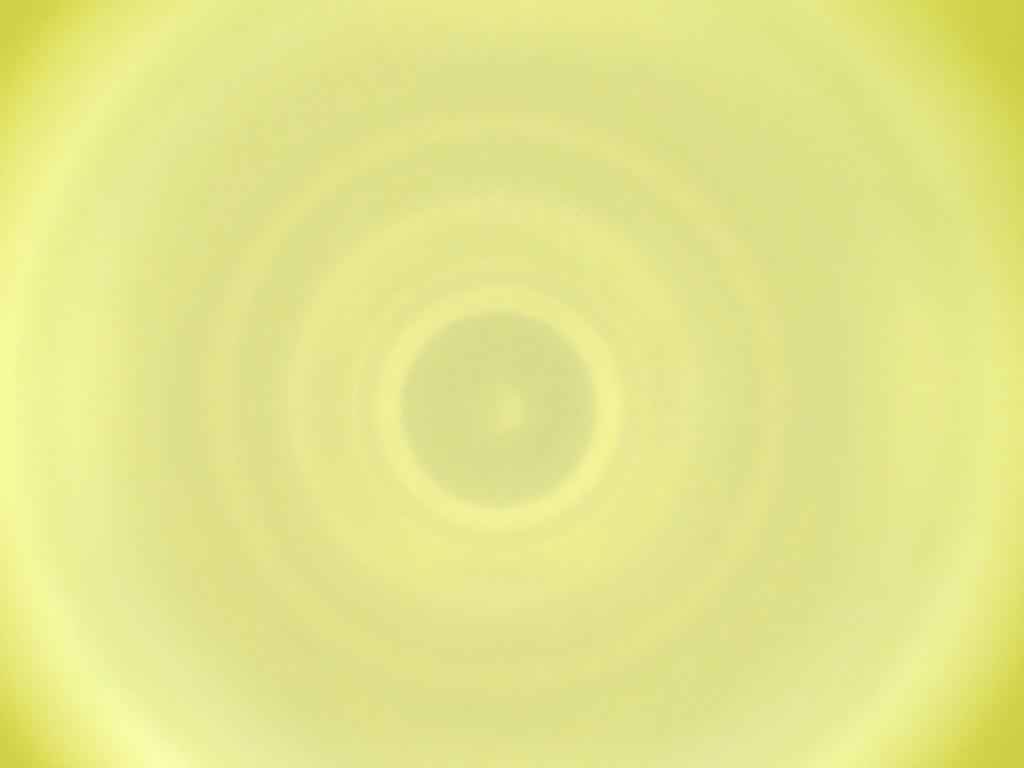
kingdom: Animalia
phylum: Arthropoda
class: Insecta
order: Diptera
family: Cecidomyiidae
